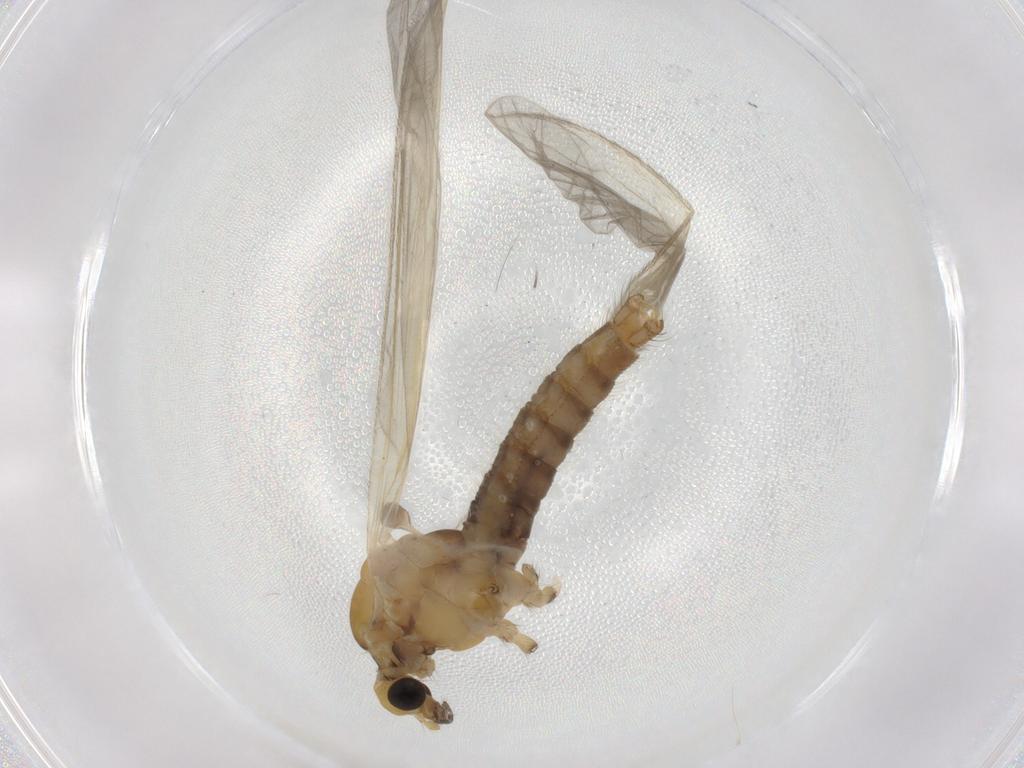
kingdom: Animalia
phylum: Arthropoda
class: Insecta
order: Diptera
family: Limoniidae
